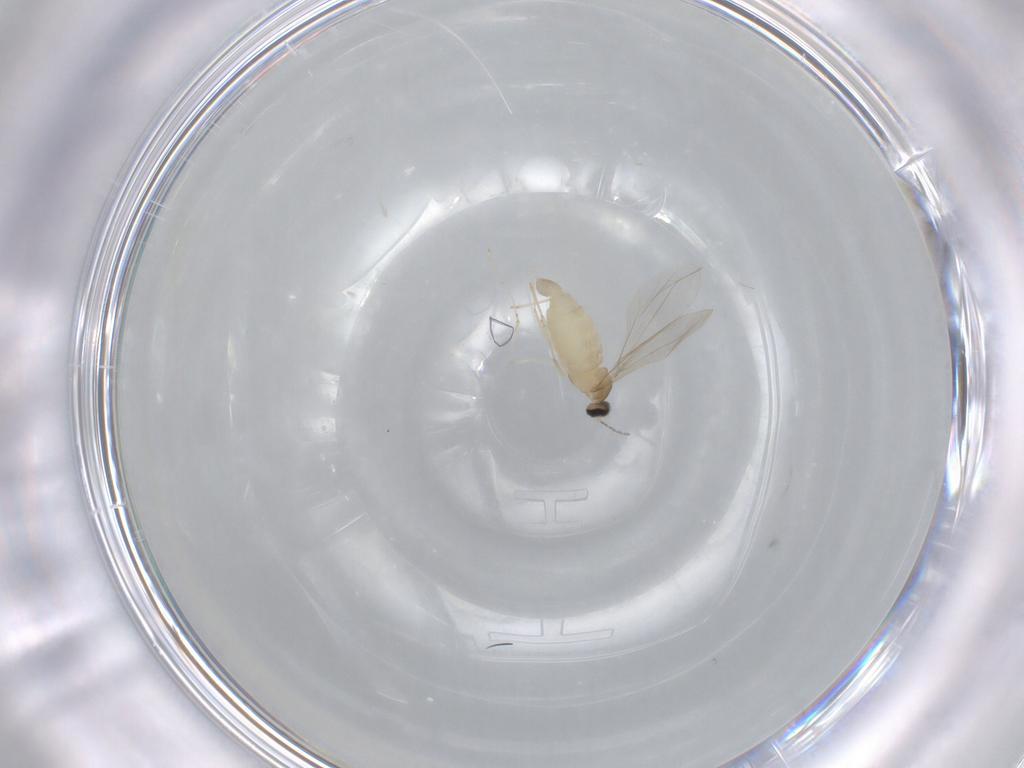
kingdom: Animalia
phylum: Arthropoda
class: Insecta
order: Diptera
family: Cecidomyiidae
